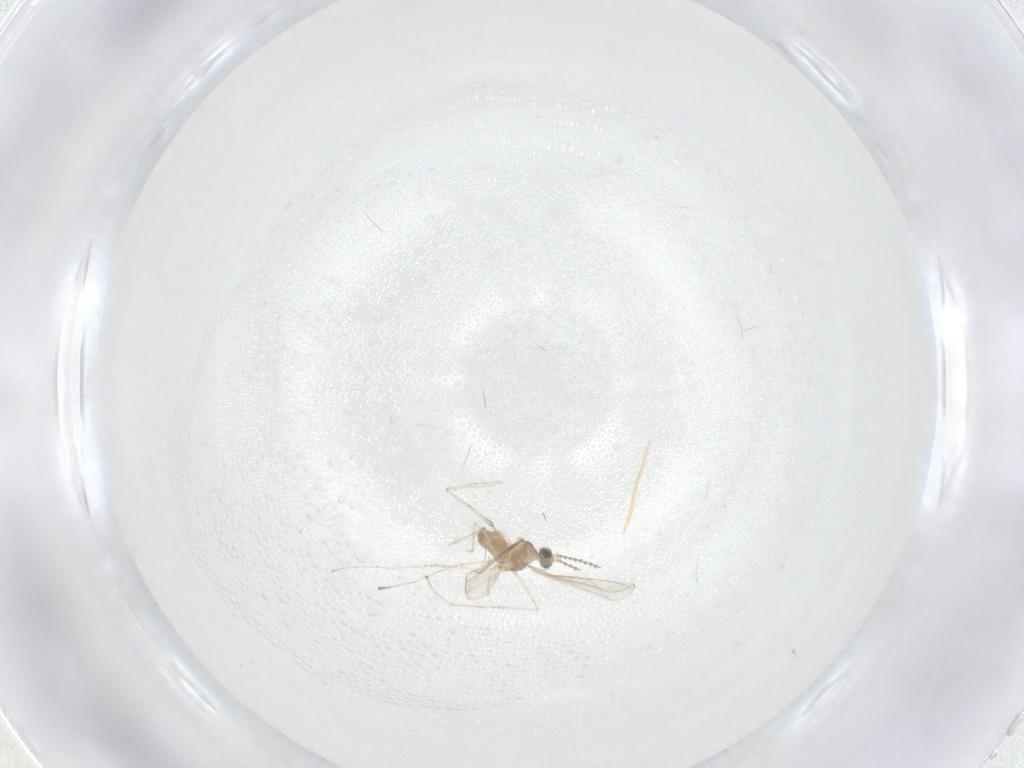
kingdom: Animalia
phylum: Arthropoda
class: Insecta
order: Diptera
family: Cecidomyiidae
